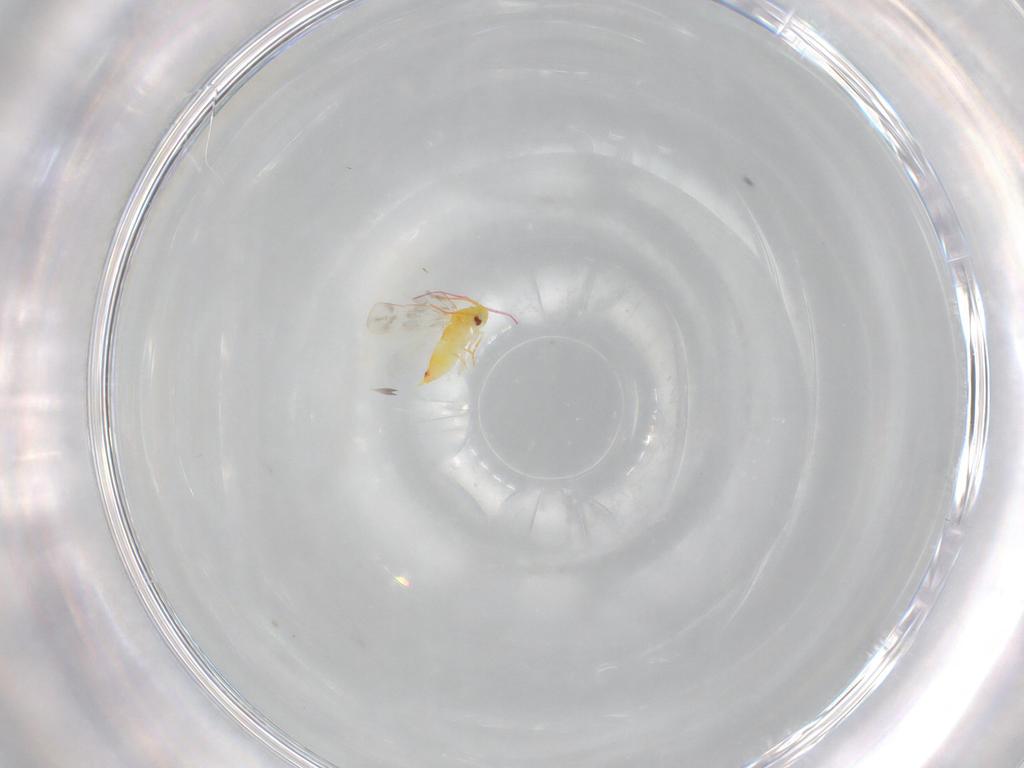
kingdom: Animalia
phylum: Arthropoda
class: Insecta
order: Hemiptera
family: Aleyrodidae
